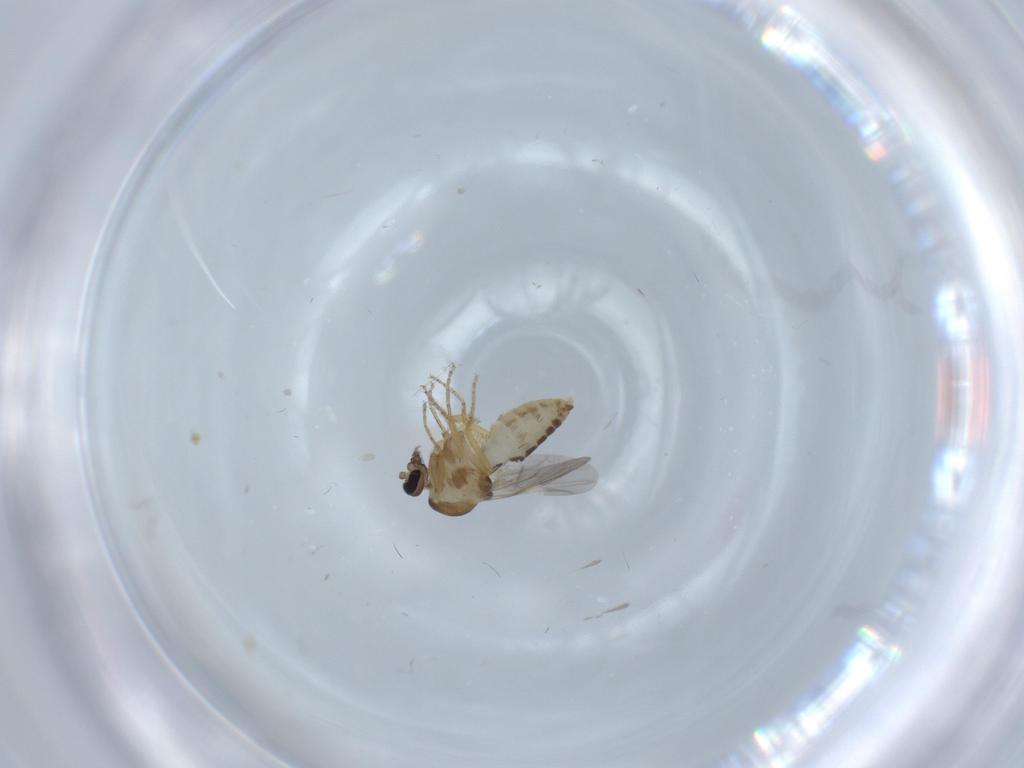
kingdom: Animalia
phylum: Arthropoda
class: Insecta
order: Diptera
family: Ceratopogonidae
